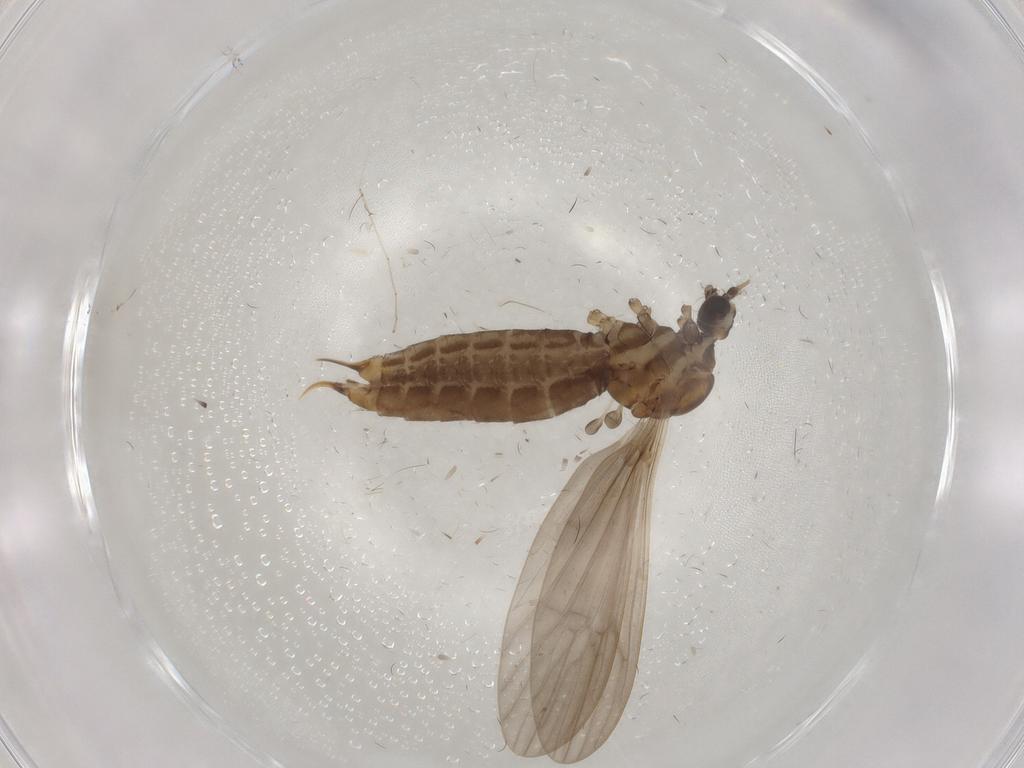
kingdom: Animalia
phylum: Arthropoda
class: Insecta
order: Diptera
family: Limoniidae
